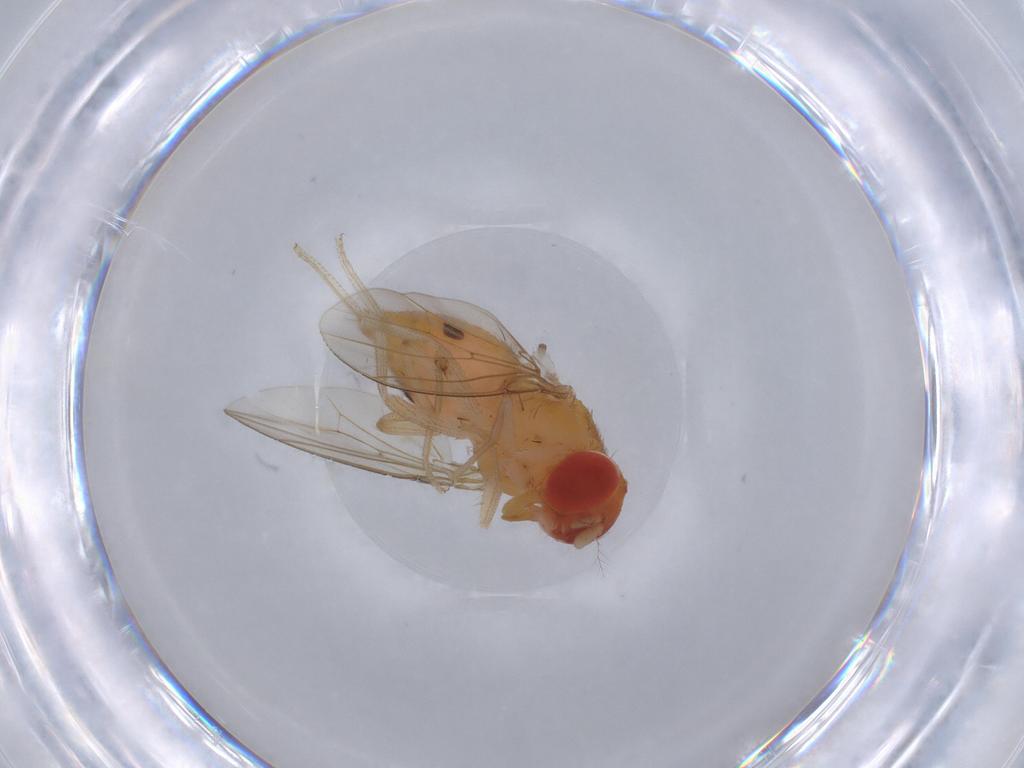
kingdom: Animalia
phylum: Arthropoda
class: Insecta
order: Diptera
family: Drosophilidae
